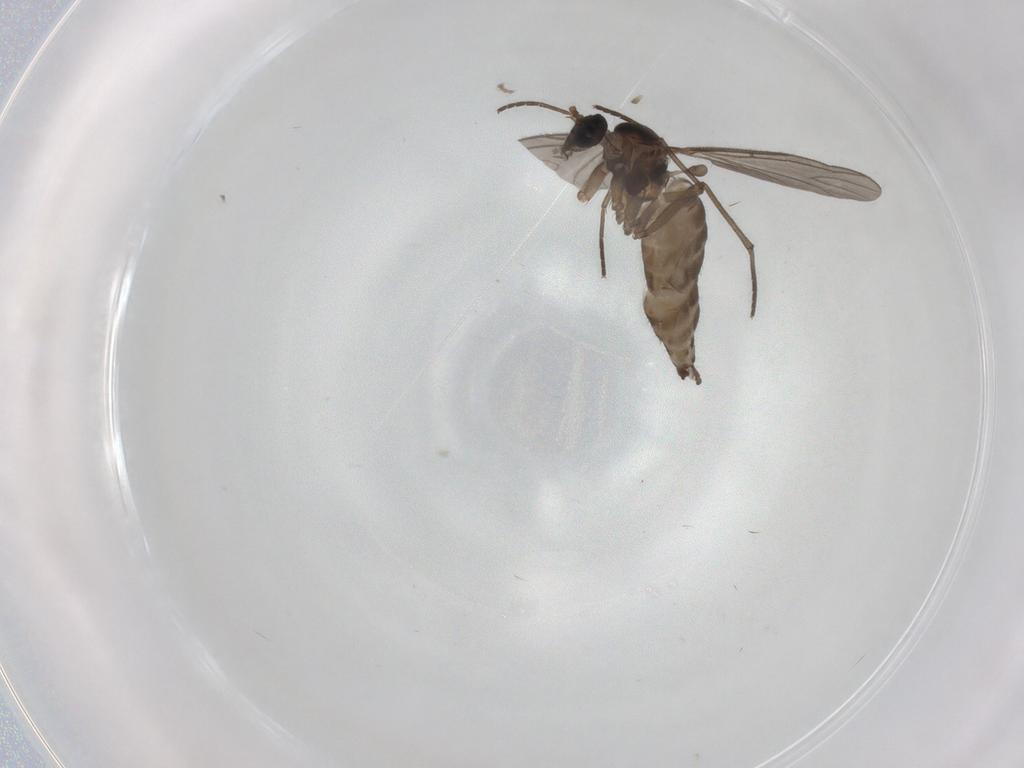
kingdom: Animalia
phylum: Arthropoda
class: Insecta
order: Diptera
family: Sciaridae
